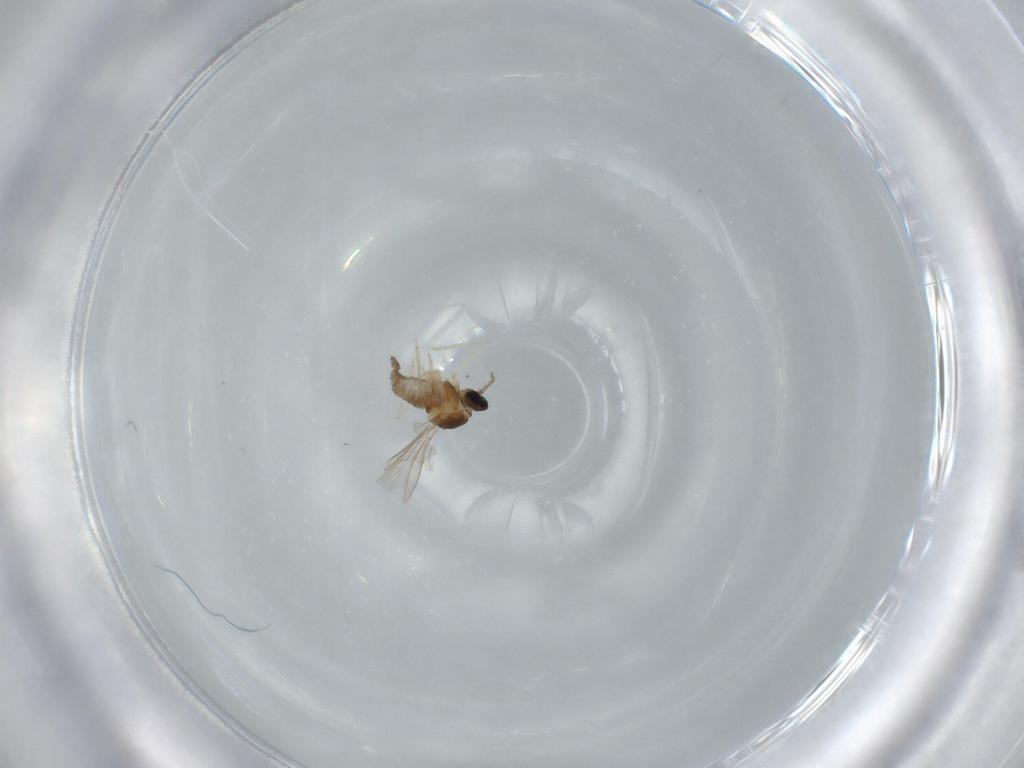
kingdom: Animalia
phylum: Arthropoda
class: Insecta
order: Diptera
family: Cecidomyiidae
